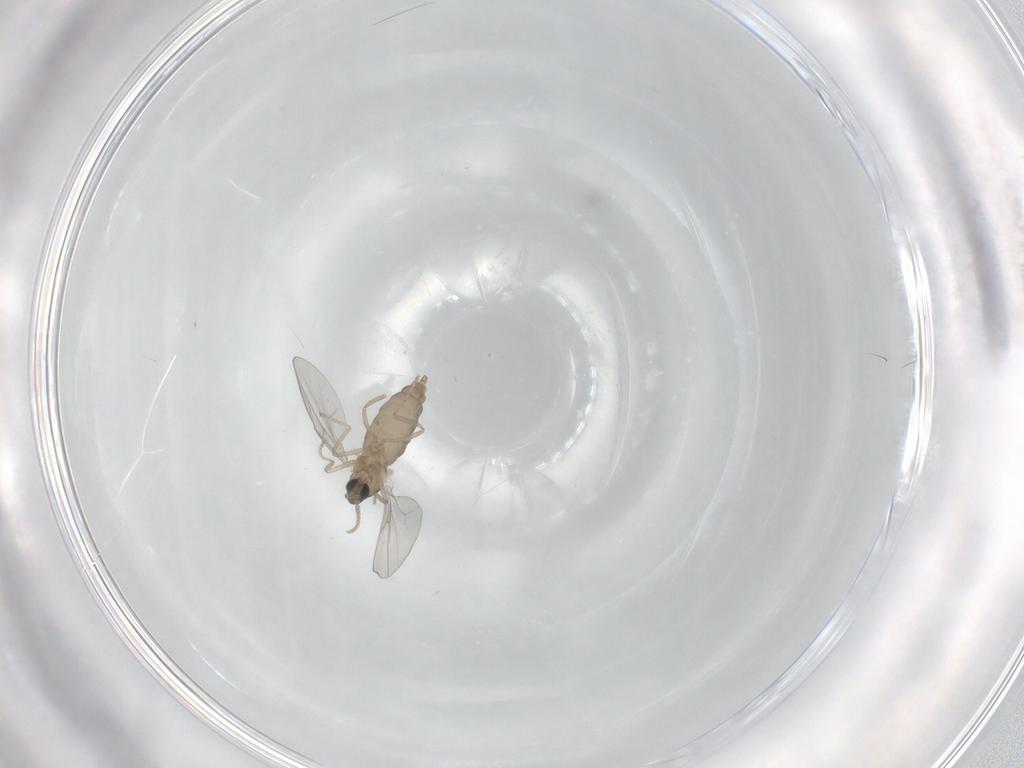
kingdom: Animalia
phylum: Arthropoda
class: Insecta
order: Diptera
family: Cecidomyiidae
